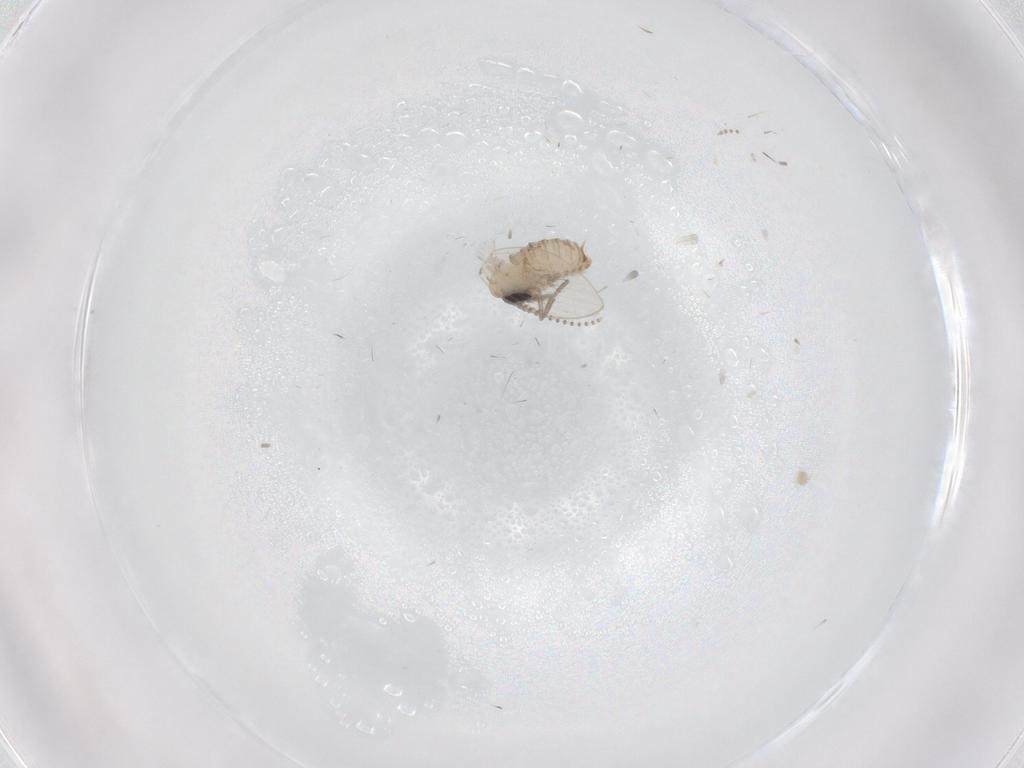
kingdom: Animalia
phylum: Arthropoda
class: Insecta
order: Diptera
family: Psychodidae
